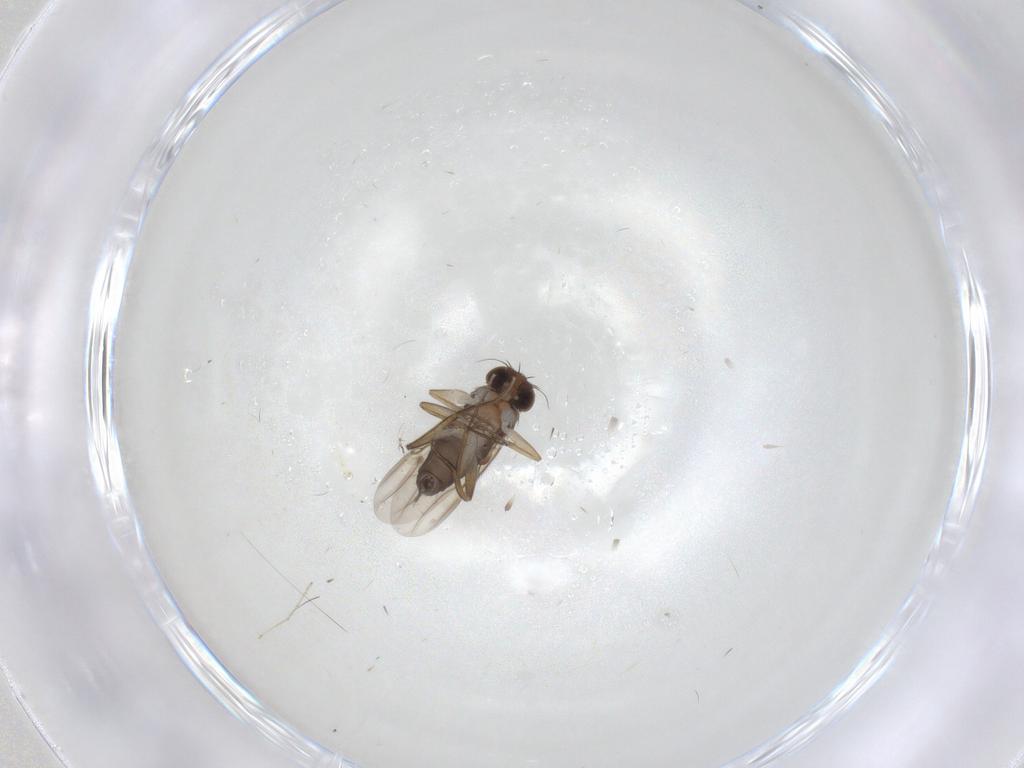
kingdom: Animalia
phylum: Arthropoda
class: Insecta
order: Diptera
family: Phoridae
